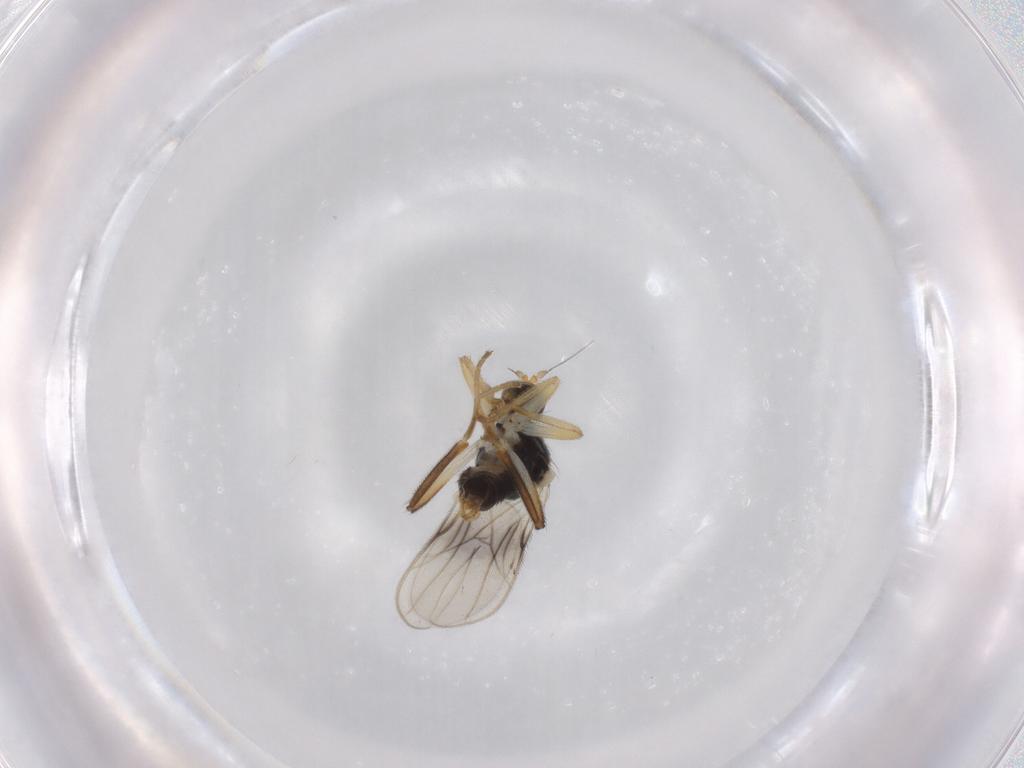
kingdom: Animalia
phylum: Arthropoda
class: Insecta
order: Diptera
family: Hybotidae
